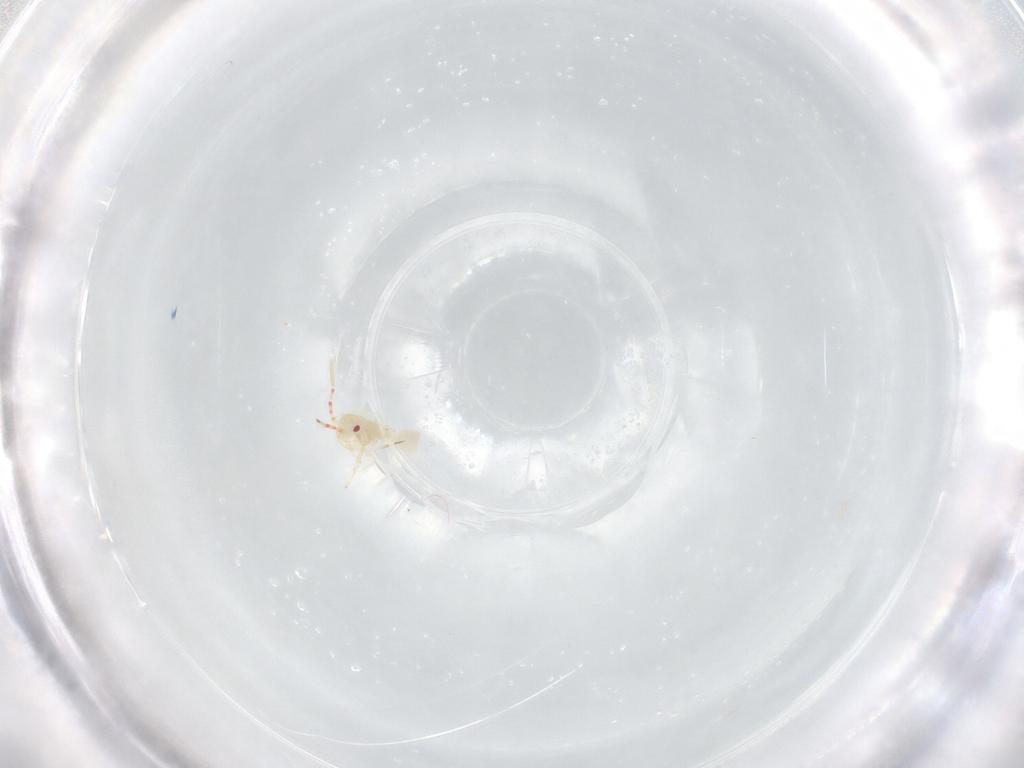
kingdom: Animalia
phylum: Arthropoda
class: Insecta
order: Hemiptera
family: Miridae
